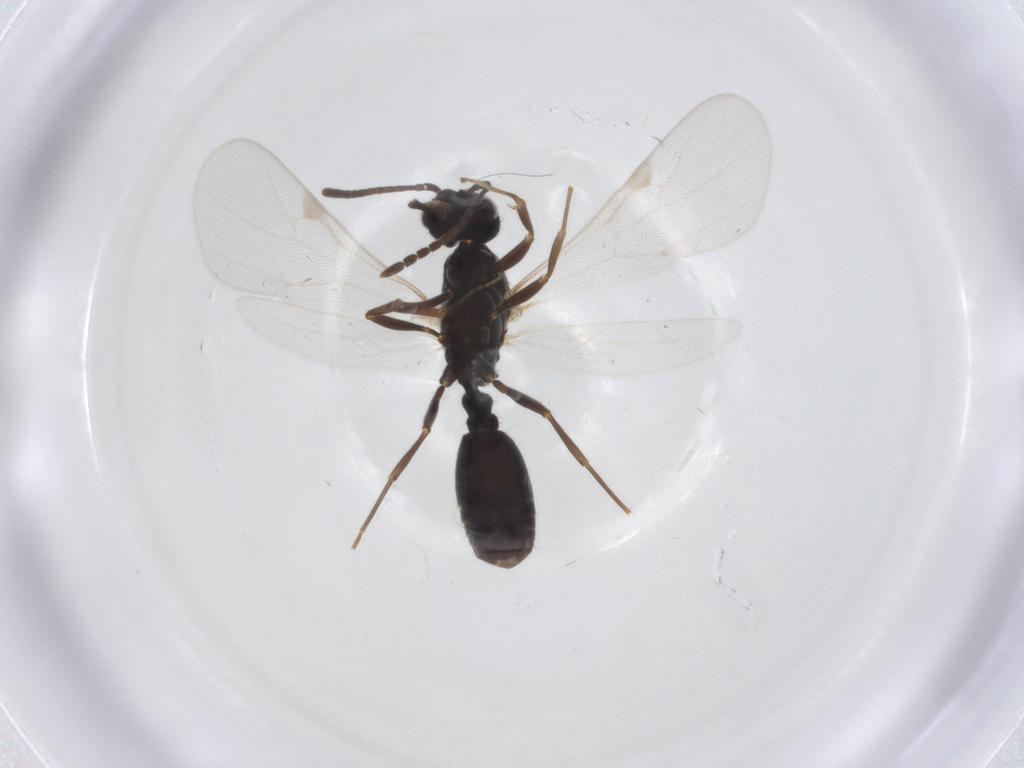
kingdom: Animalia
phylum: Arthropoda
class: Insecta
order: Hymenoptera
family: Formicidae
